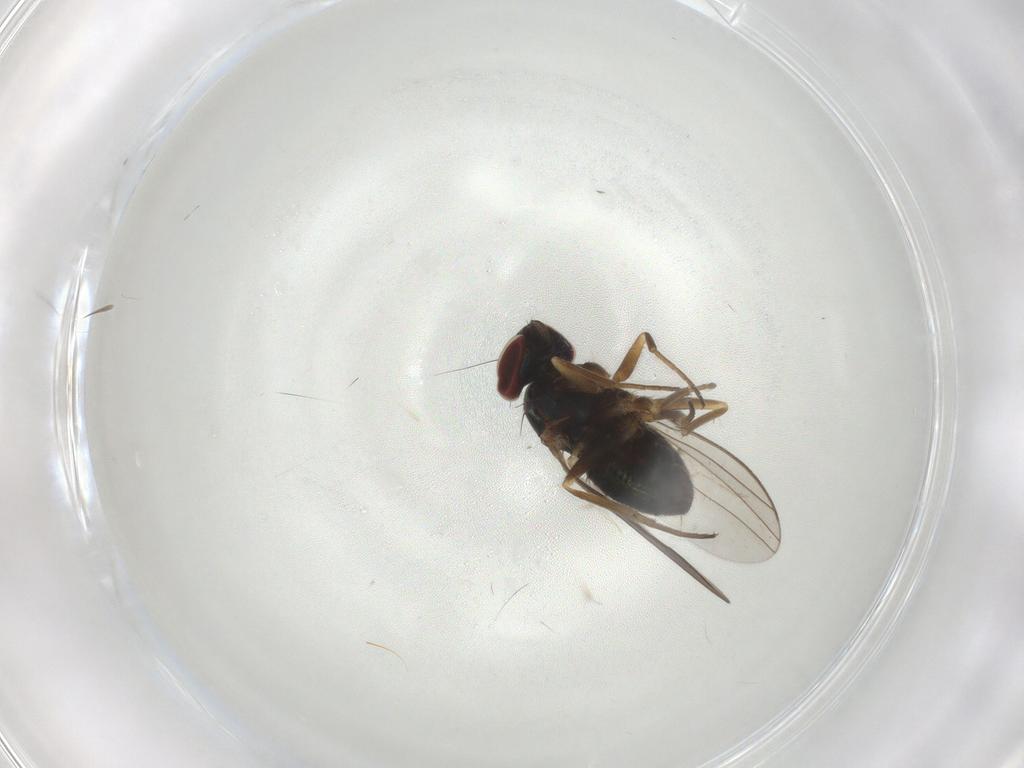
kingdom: Animalia
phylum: Arthropoda
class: Insecta
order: Diptera
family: Dolichopodidae
